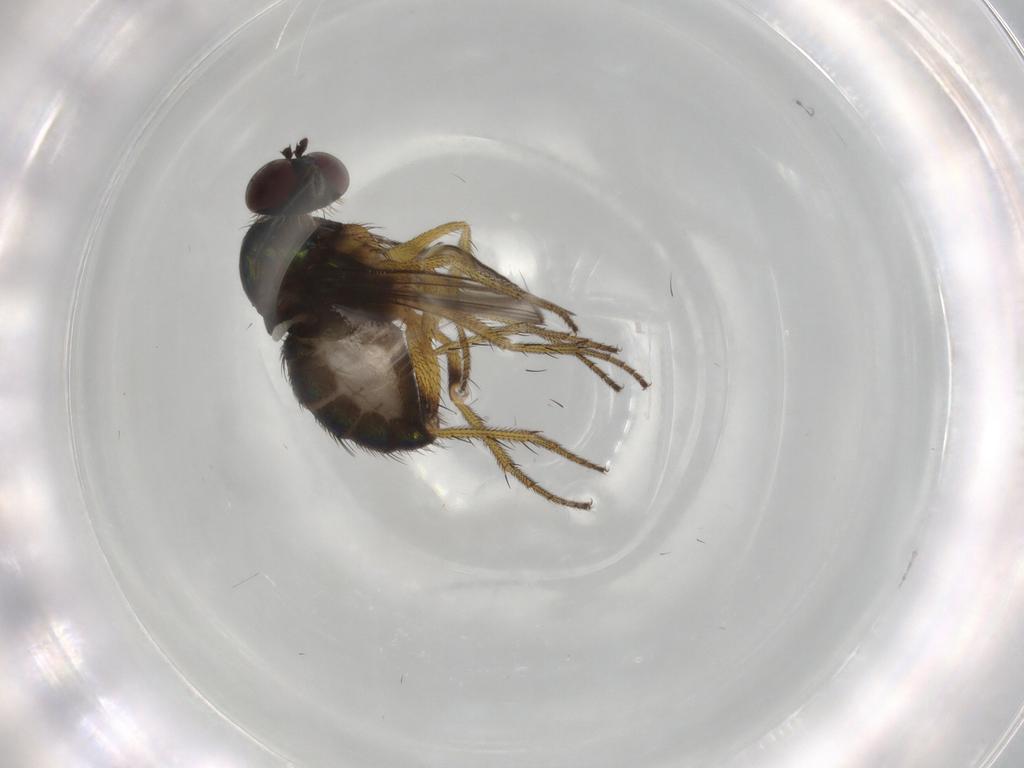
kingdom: Animalia
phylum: Arthropoda
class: Insecta
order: Diptera
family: Dolichopodidae
